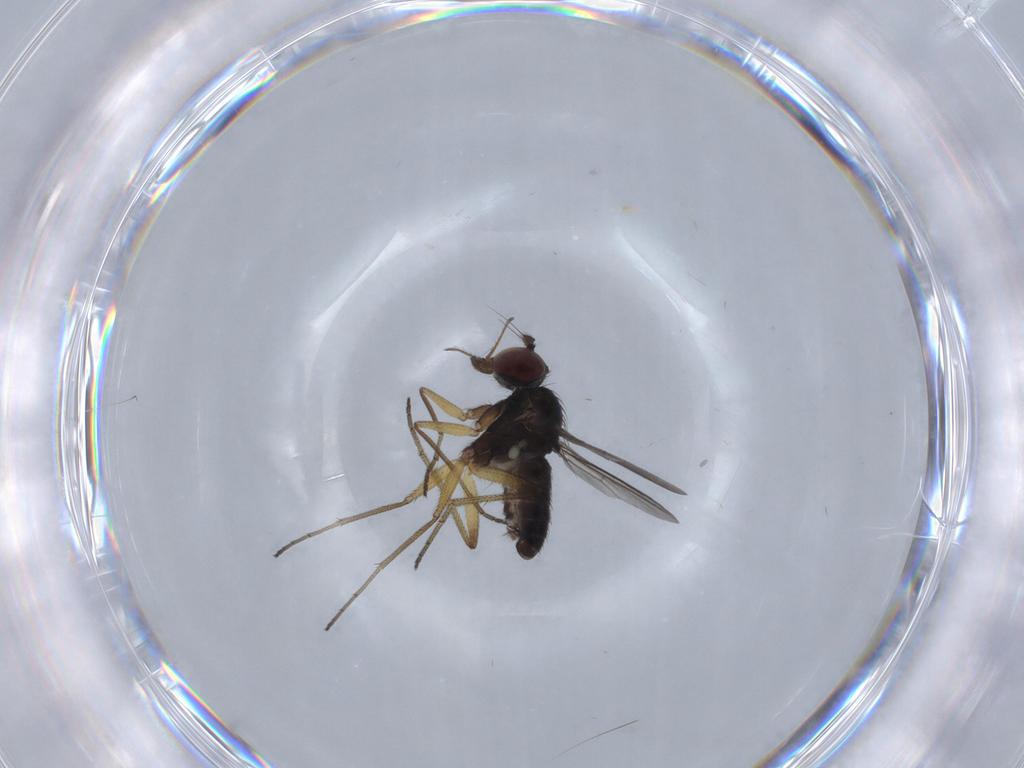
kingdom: Animalia
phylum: Arthropoda
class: Insecta
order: Diptera
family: Dolichopodidae
